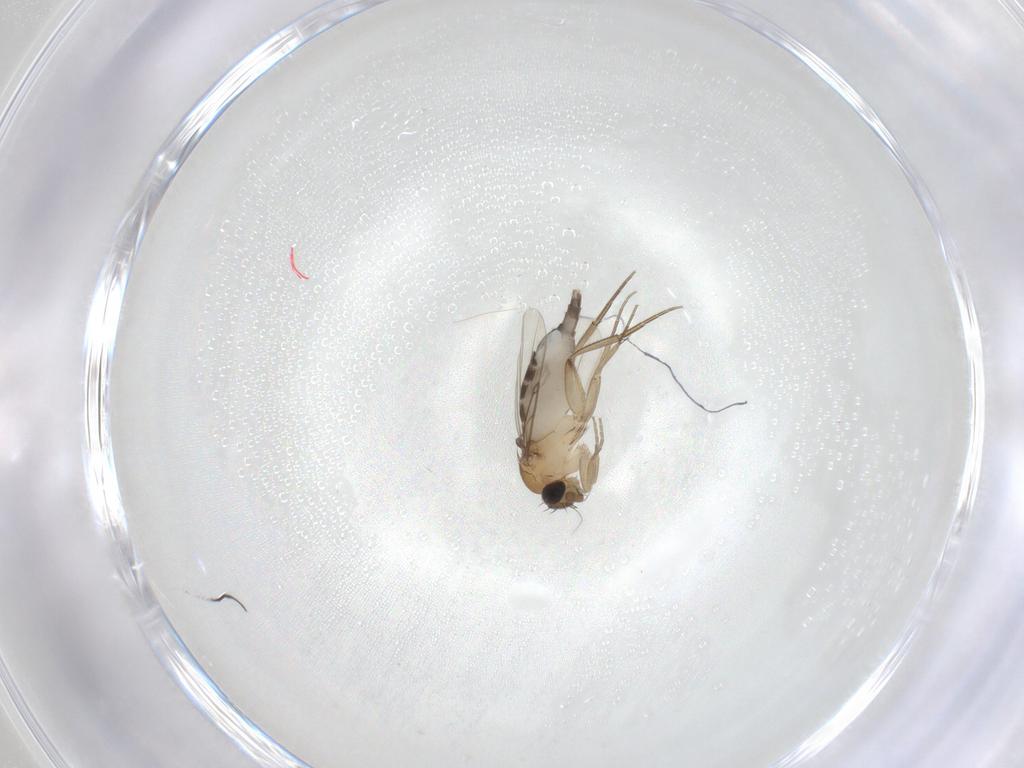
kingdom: Animalia
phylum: Arthropoda
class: Insecta
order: Diptera
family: Phoridae
